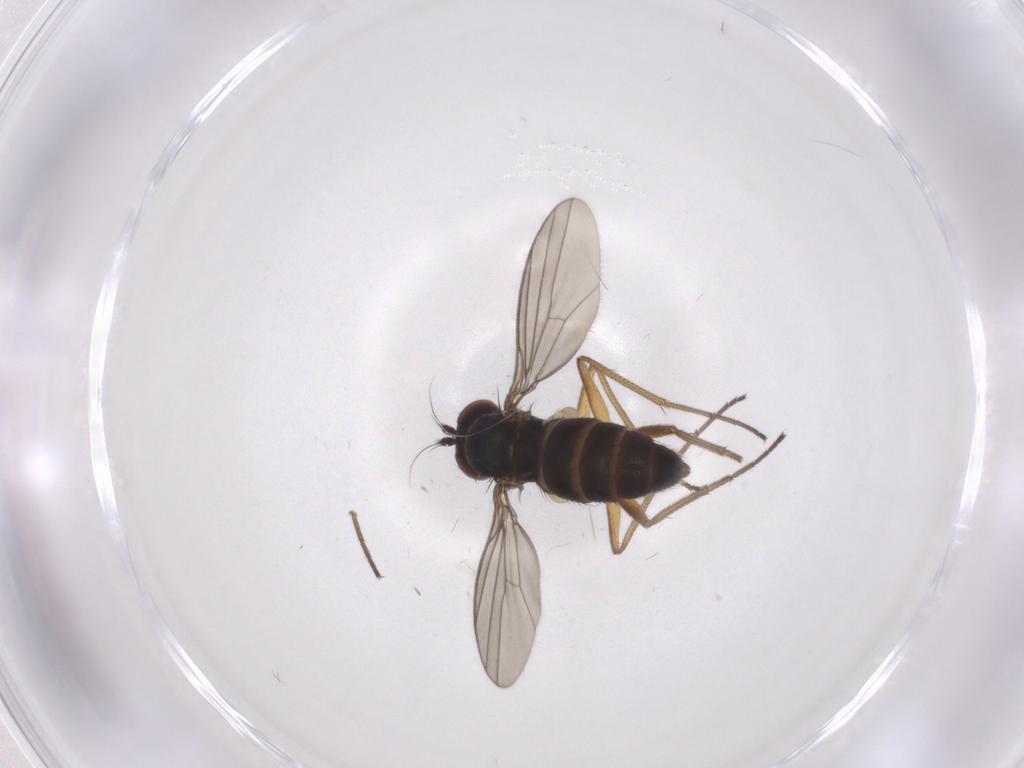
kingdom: Animalia
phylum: Arthropoda
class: Insecta
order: Diptera
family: Dolichopodidae
